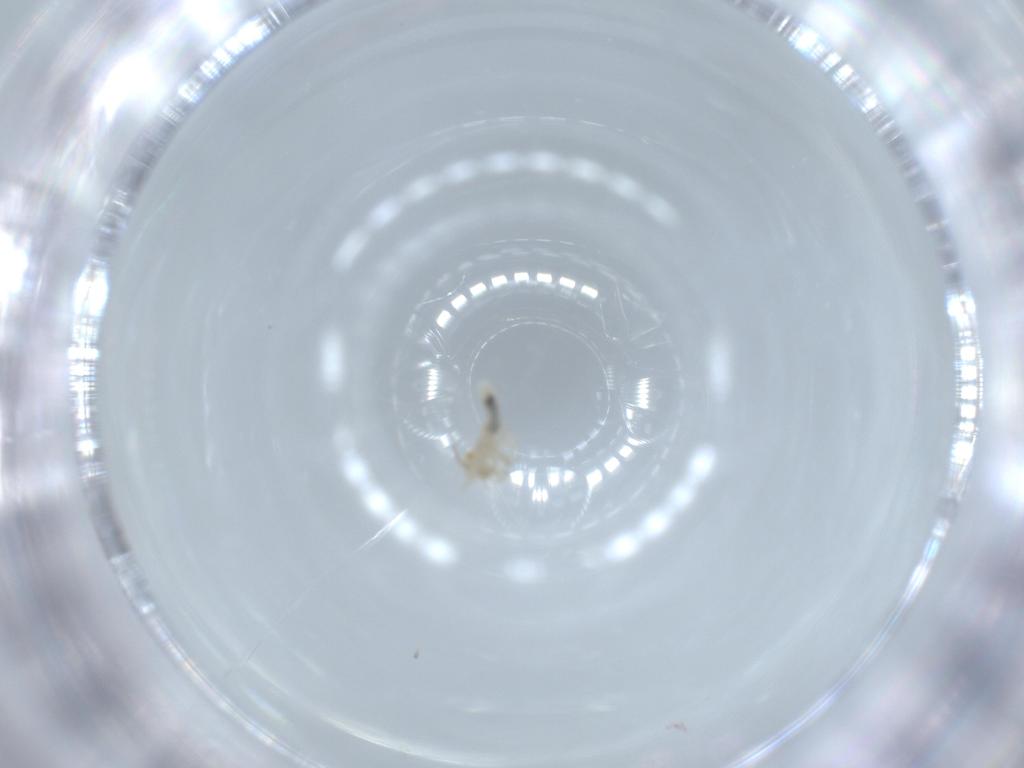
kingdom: Animalia
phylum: Arthropoda
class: Insecta
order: Psocodea
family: Caeciliusidae
